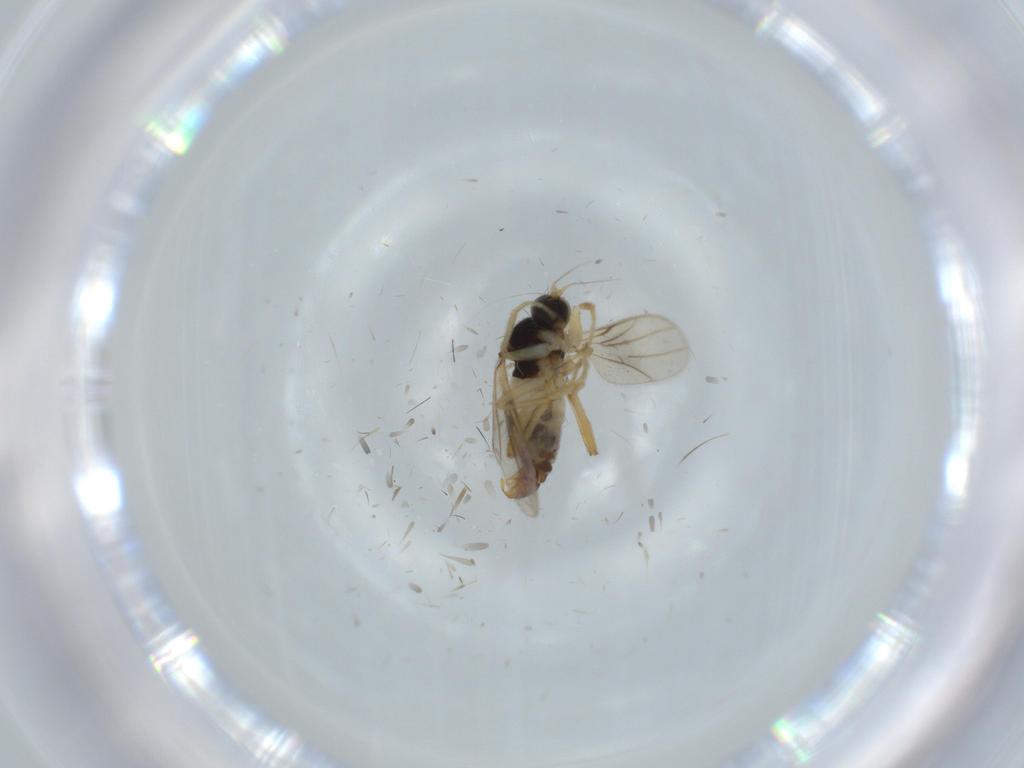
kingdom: Animalia
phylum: Arthropoda
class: Insecta
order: Diptera
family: Hybotidae
